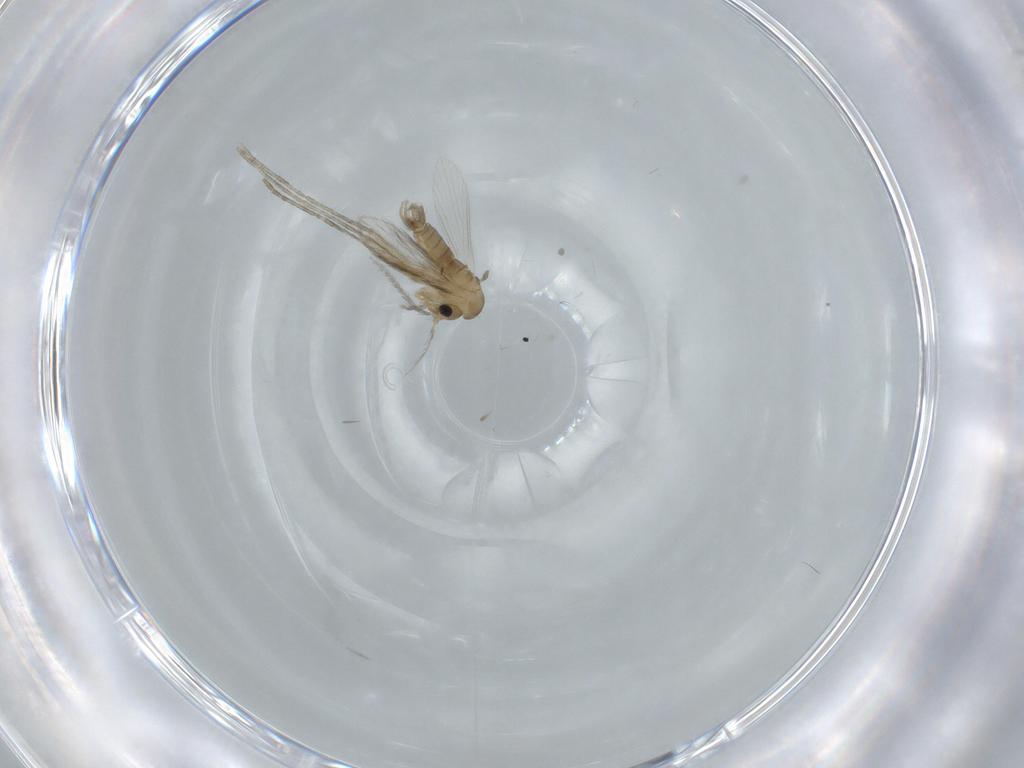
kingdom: Animalia
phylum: Arthropoda
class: Insecta
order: Diptera
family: Psychodidae
